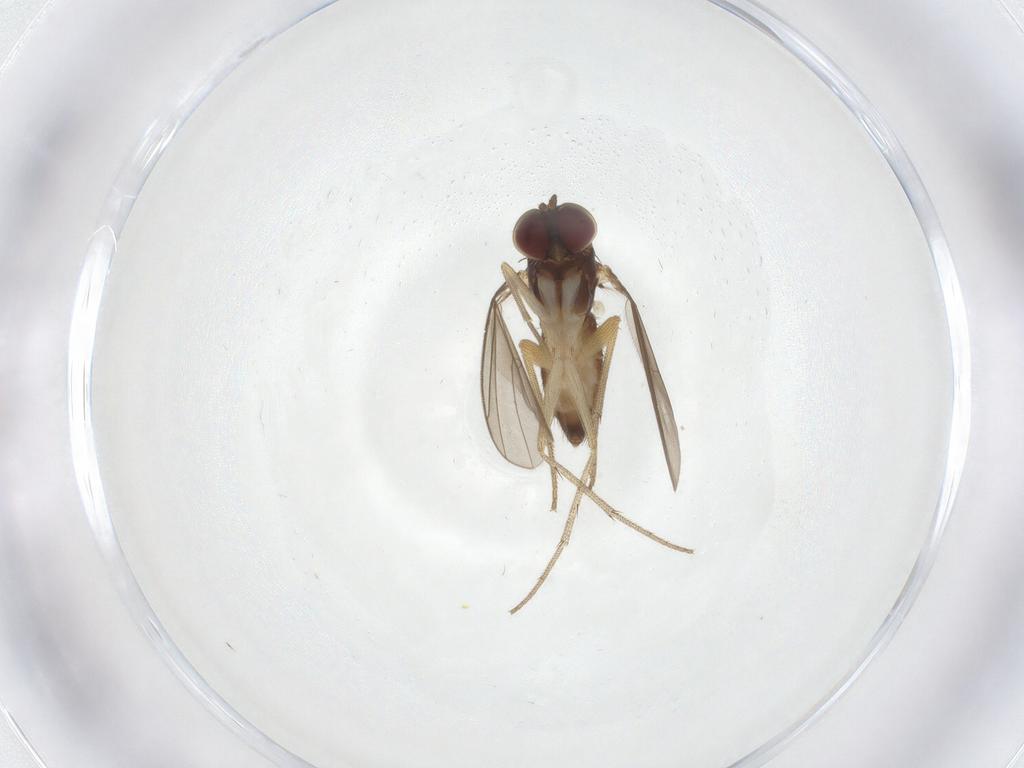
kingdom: Animalia
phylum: Arthropoda
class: Insecta
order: Diptera
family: Dolichopodidae
